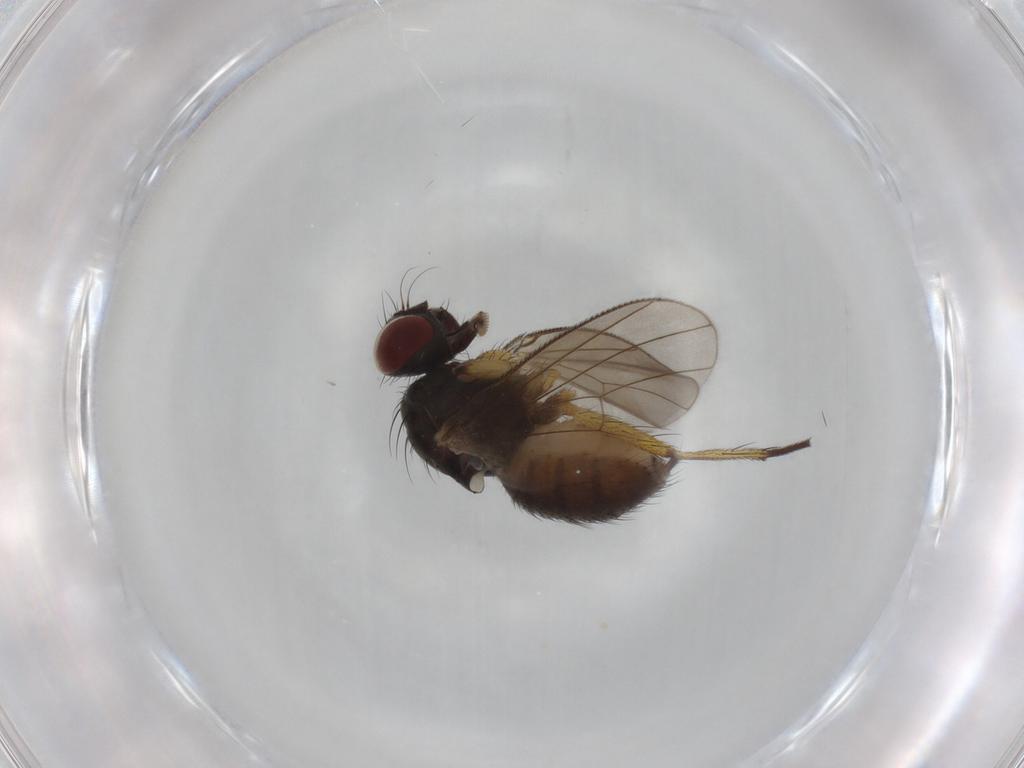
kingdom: Animalia
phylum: Arthropoda
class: Insecta
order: Diptera
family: Muscidae
